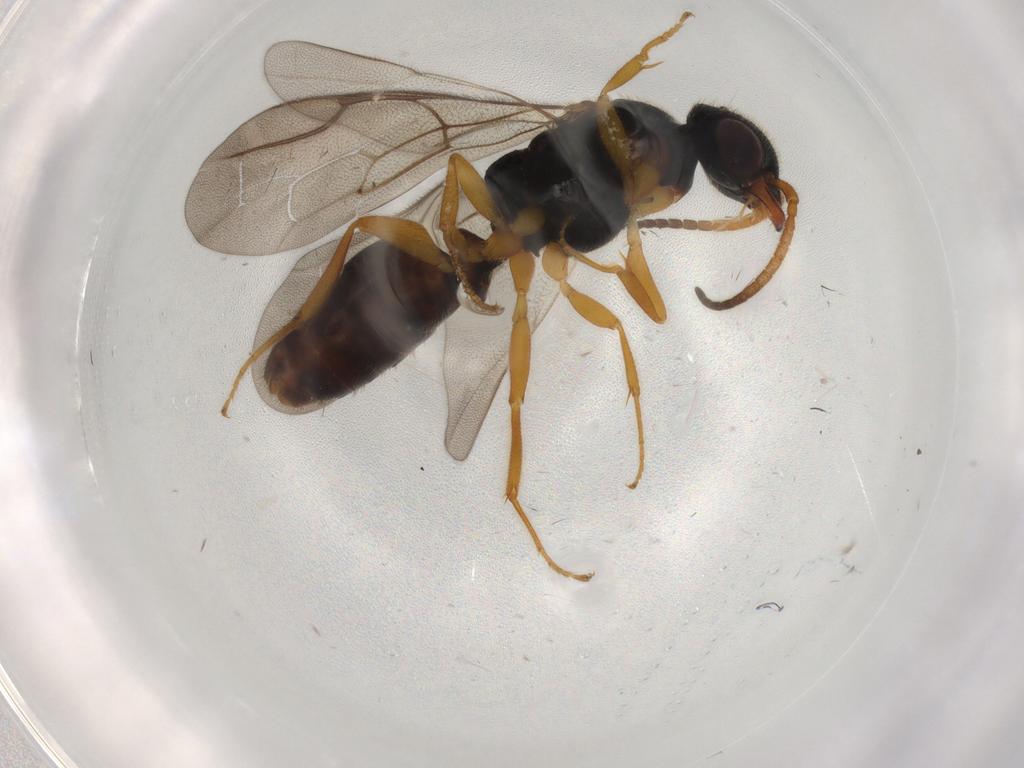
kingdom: Animalia
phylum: Arthropoda
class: Insecta
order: Hymenoptera
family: Bethylidae
